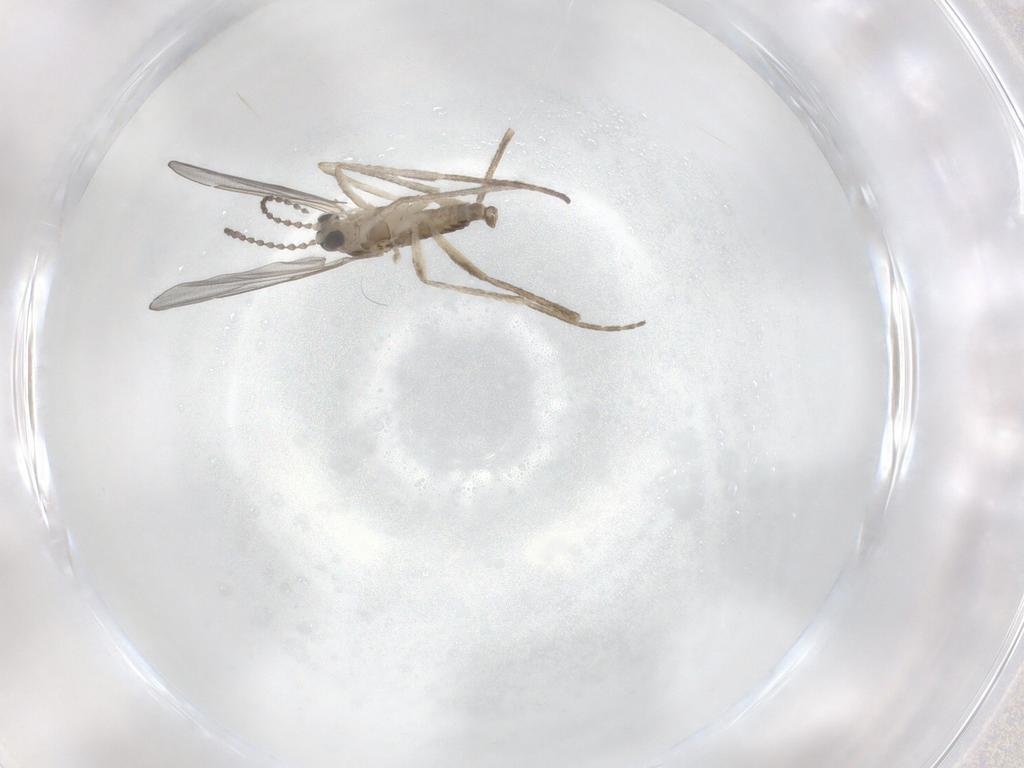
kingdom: Animalia
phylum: Arthropoda
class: Insecta
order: Diptera
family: Cecidomyiidae
